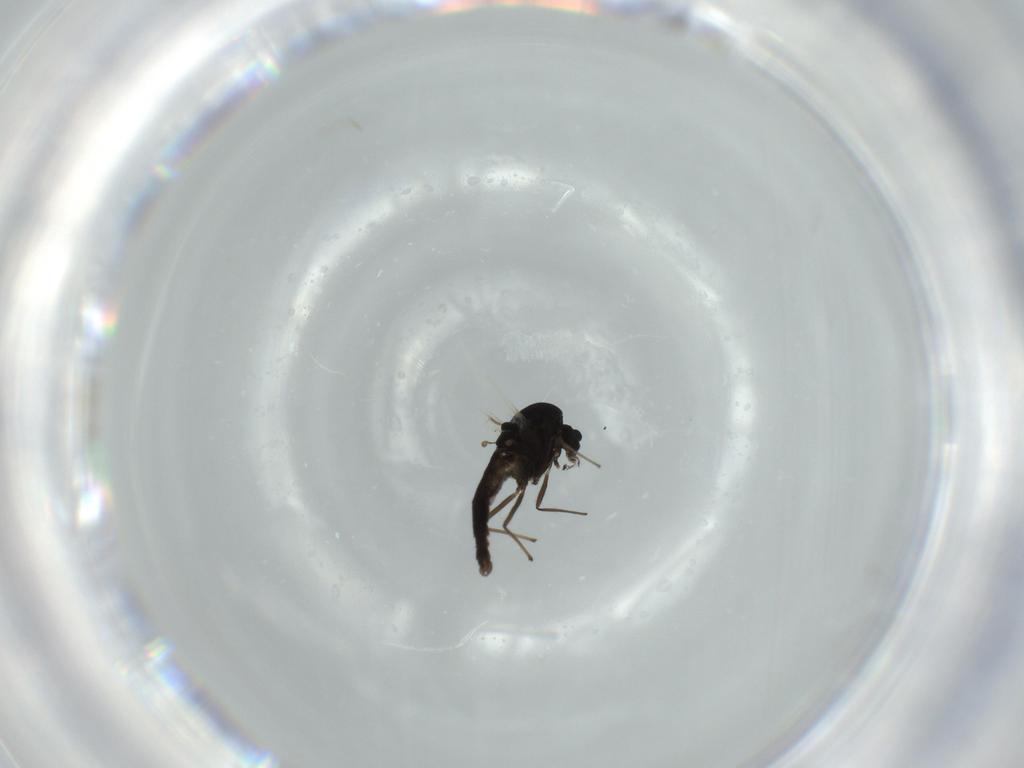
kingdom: Animalia
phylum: Arthropoda
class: Insecta
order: Diptera
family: Chironomidae
